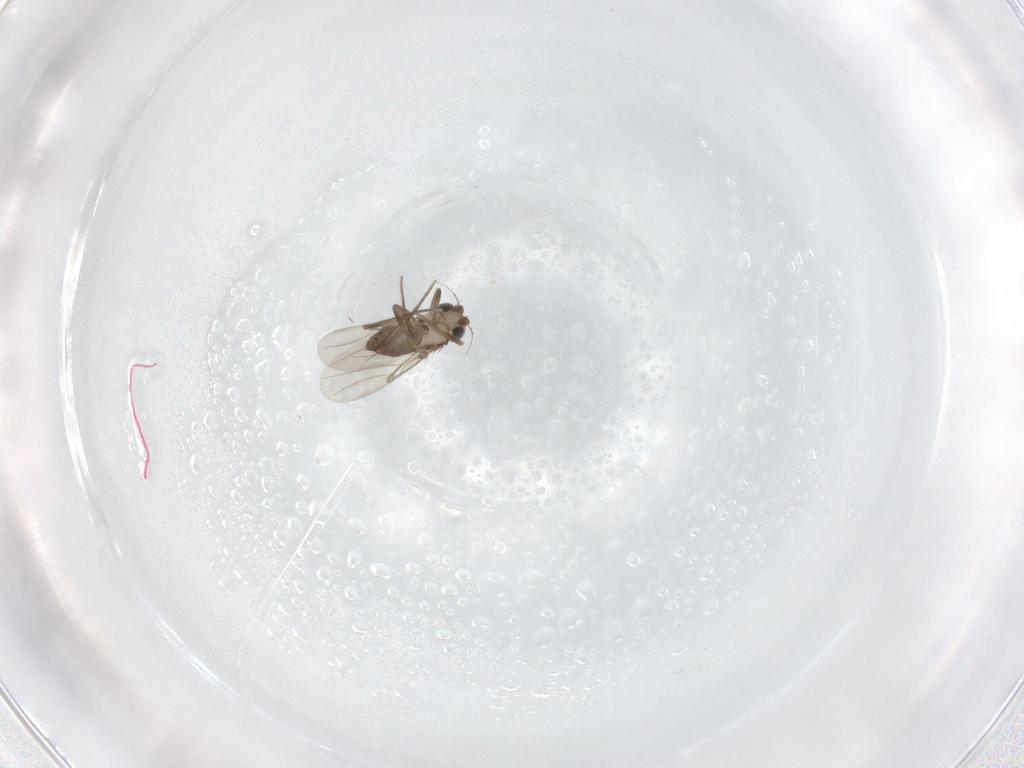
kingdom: Animalia
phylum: Arthropoda
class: Insecta
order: Diptera
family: Phoridae
